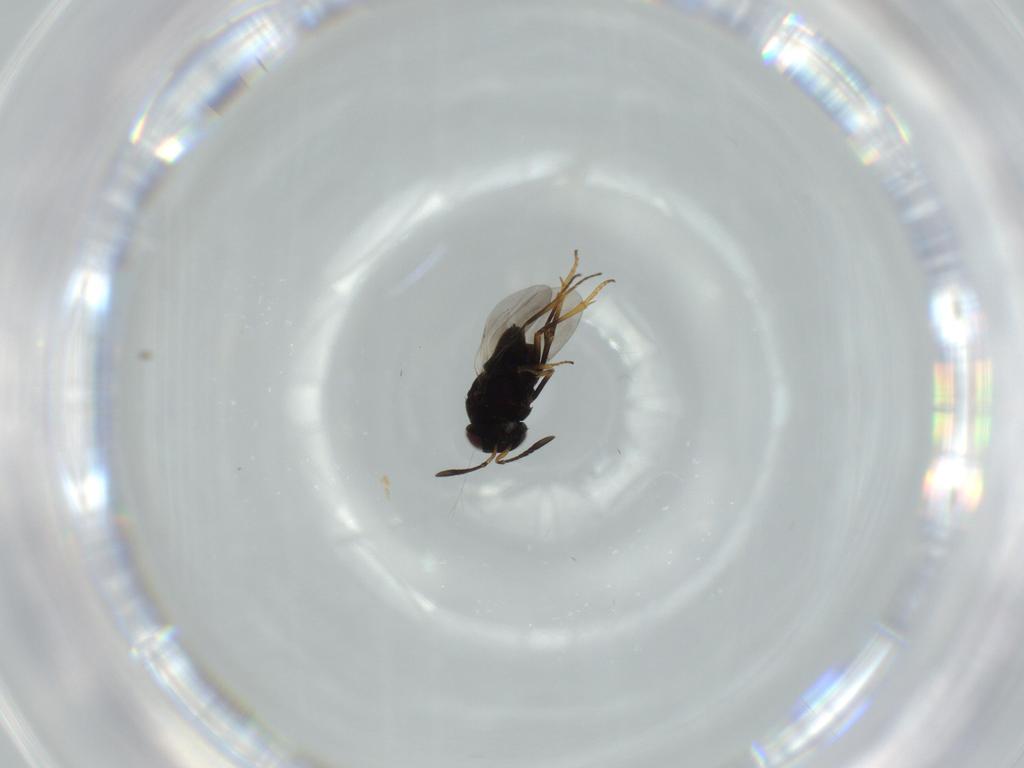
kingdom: Animalia
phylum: Arthropoda
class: Insecta
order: Hymenoptera
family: Encyrtidae
